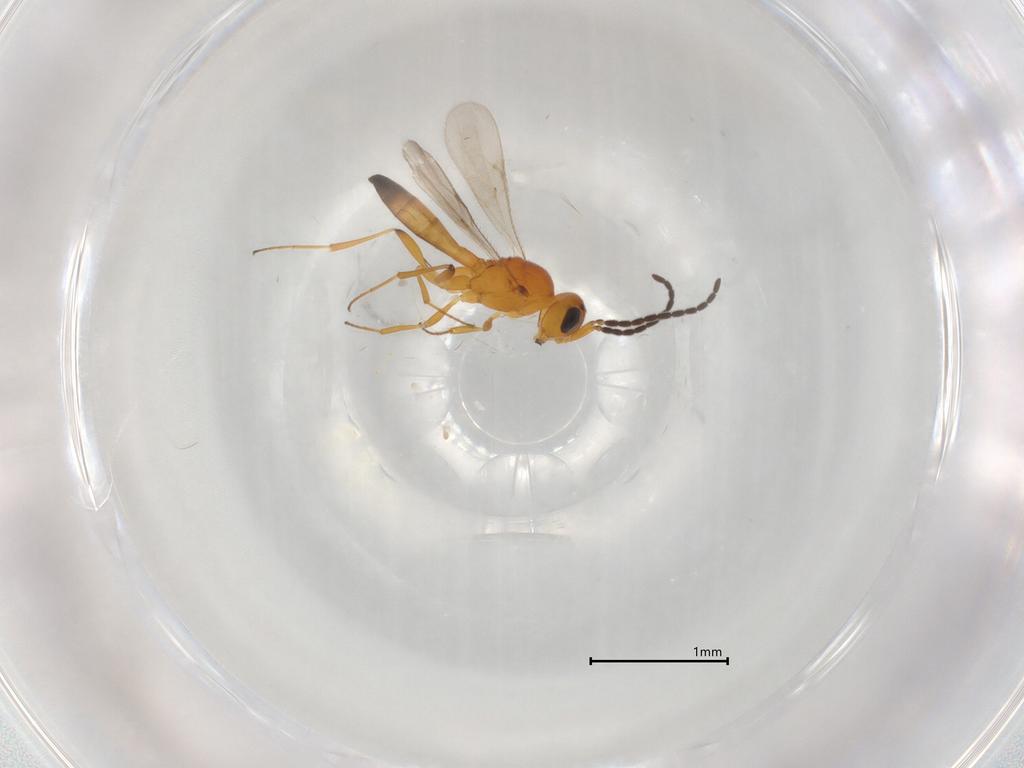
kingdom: Animalia
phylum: Arthropoda
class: Insecta
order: Hymenoptera
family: Scelionidae
